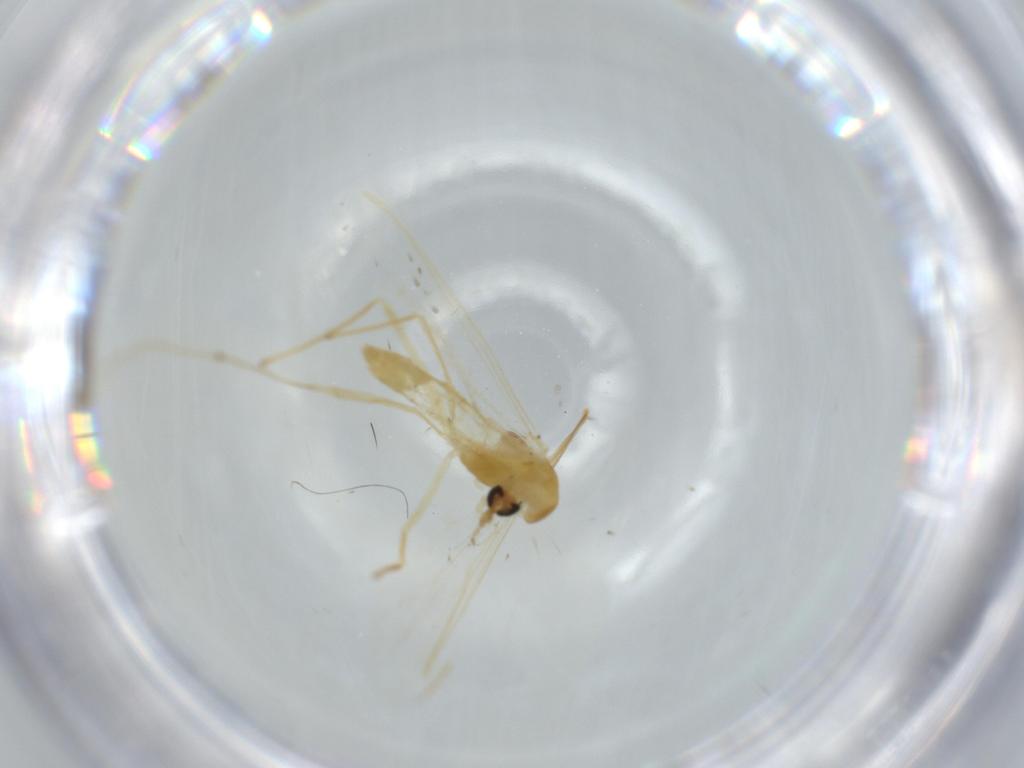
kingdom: Animalia
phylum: Arthropoda
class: Insecta
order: Diptera
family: Chironomidae
